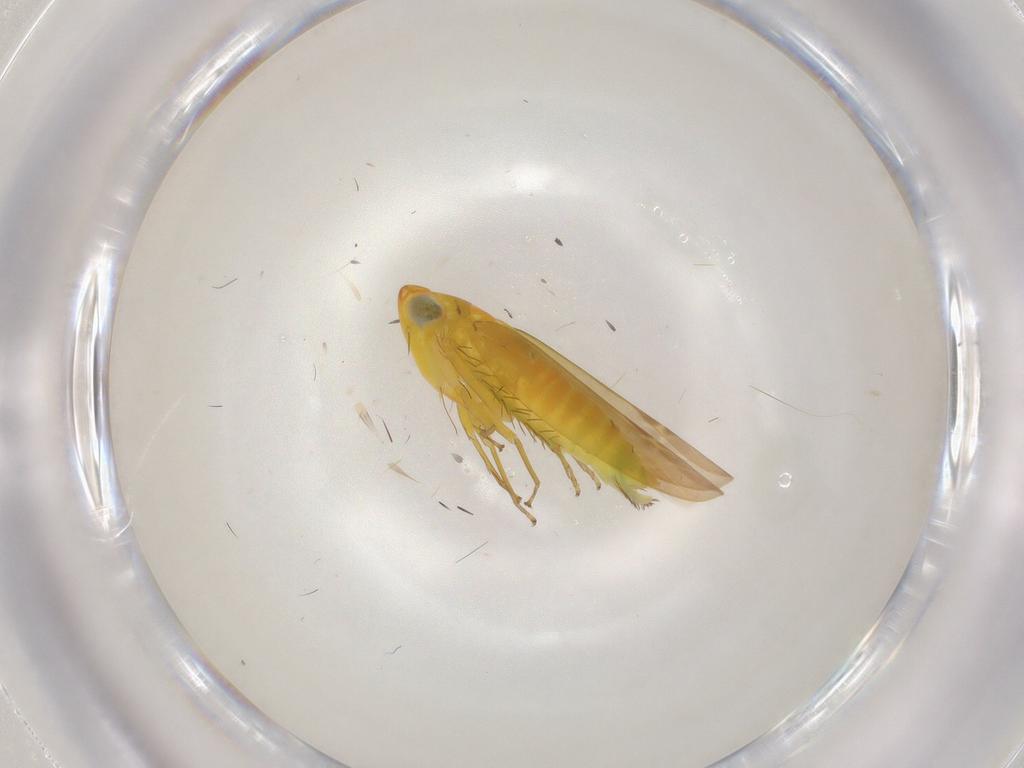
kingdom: Animalia
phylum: Arthropoda
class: Insecta
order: Hemiptera
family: Cicadellidae
